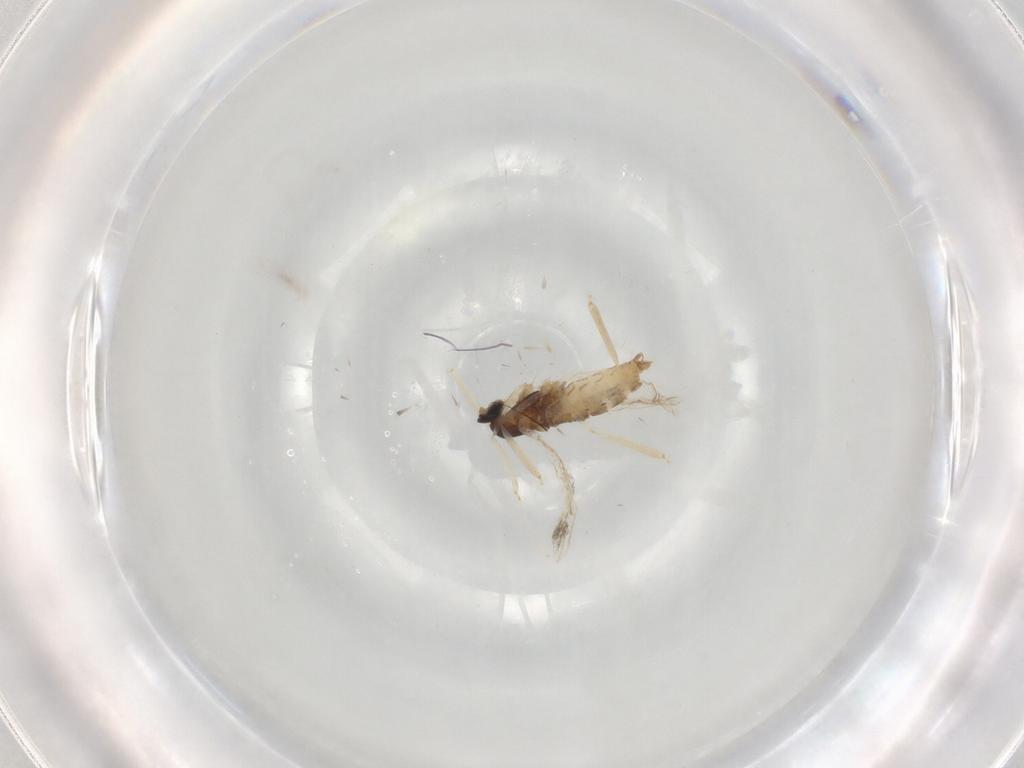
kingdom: Animalia
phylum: Arthropoda
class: Insecta
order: Diptera
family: Cecidomyiidae
